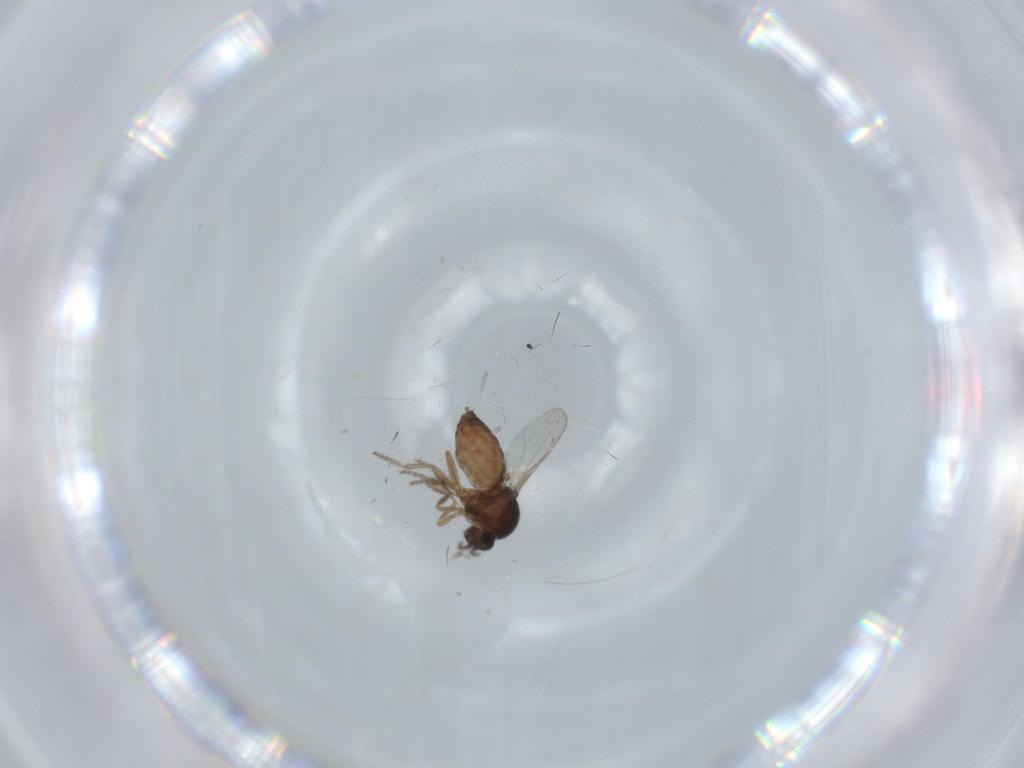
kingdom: Animalia
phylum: Arthropoda
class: Insecta
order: Diptera
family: Ceratopogonidae
